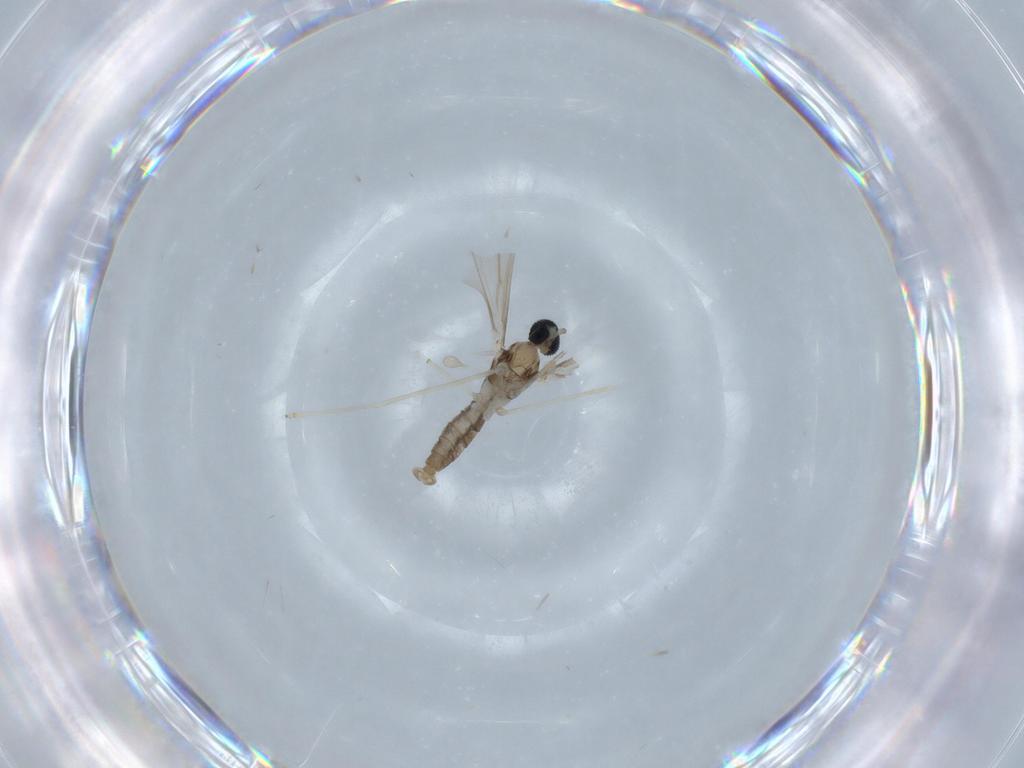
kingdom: Animalia
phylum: Arthropoda
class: Insecta
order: Diptera
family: Cecidomyiidae
